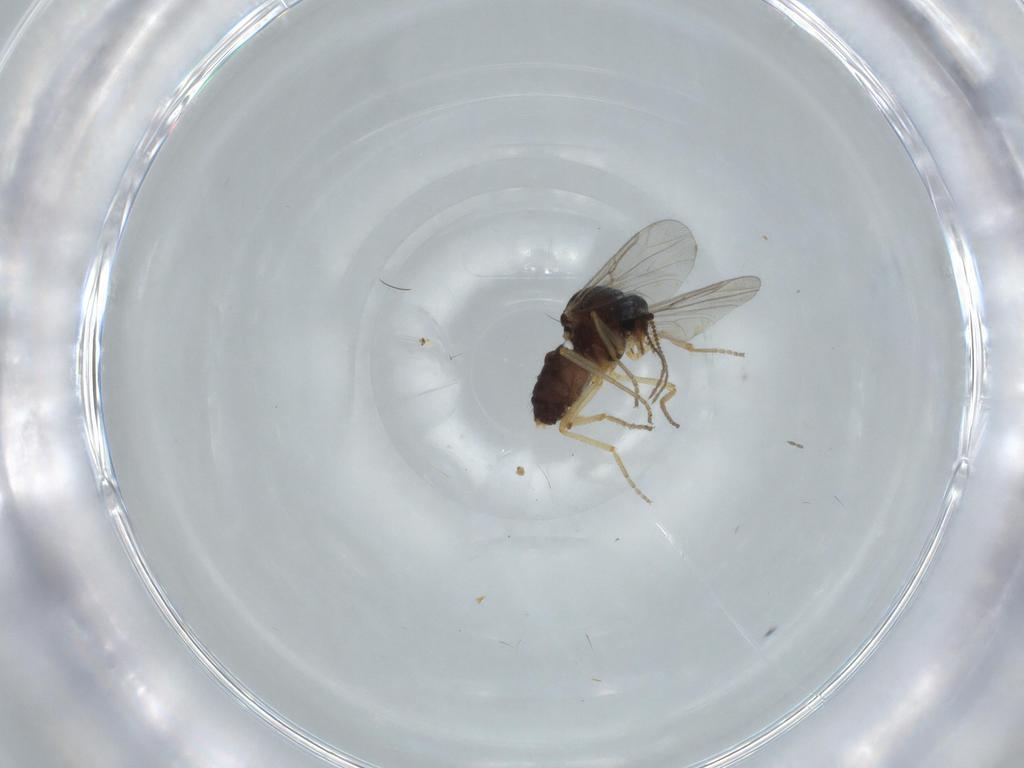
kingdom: Animalia
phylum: Arthropoda
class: Insecta
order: Diptera
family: Ceratopogonidae
